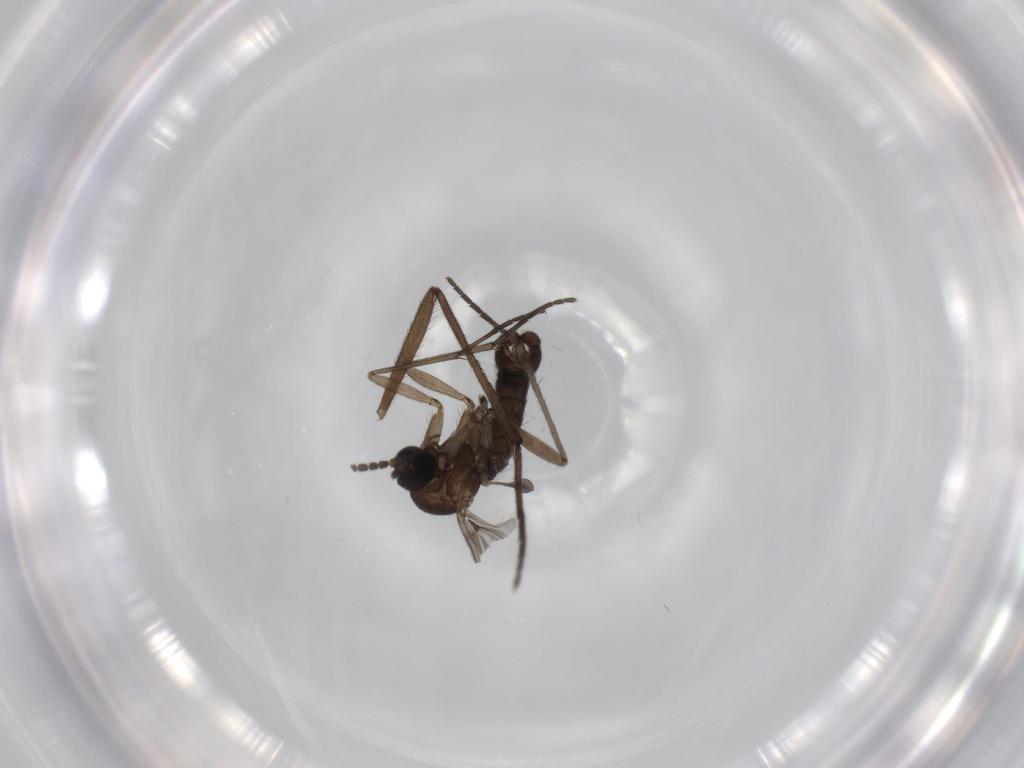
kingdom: Animalia
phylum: Arthropoda
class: Insecta
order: Diptera
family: Sciaridae
